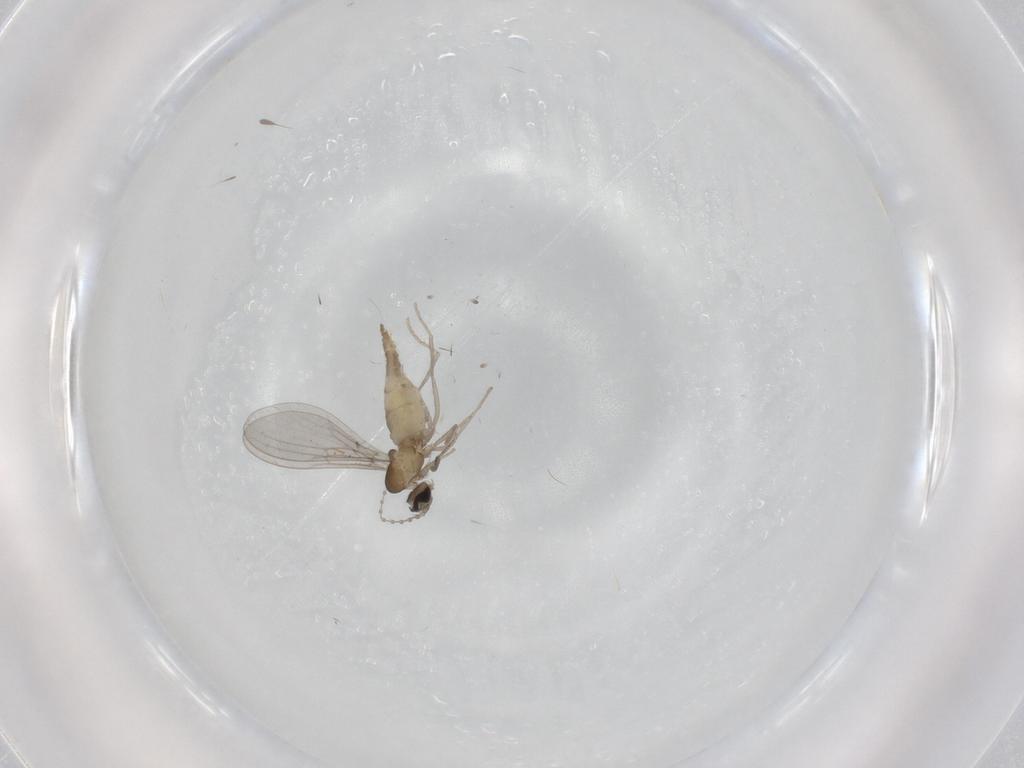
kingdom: Animalia
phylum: Arthropoda
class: Insecta
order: Diptera
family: Cecidomyiidae
